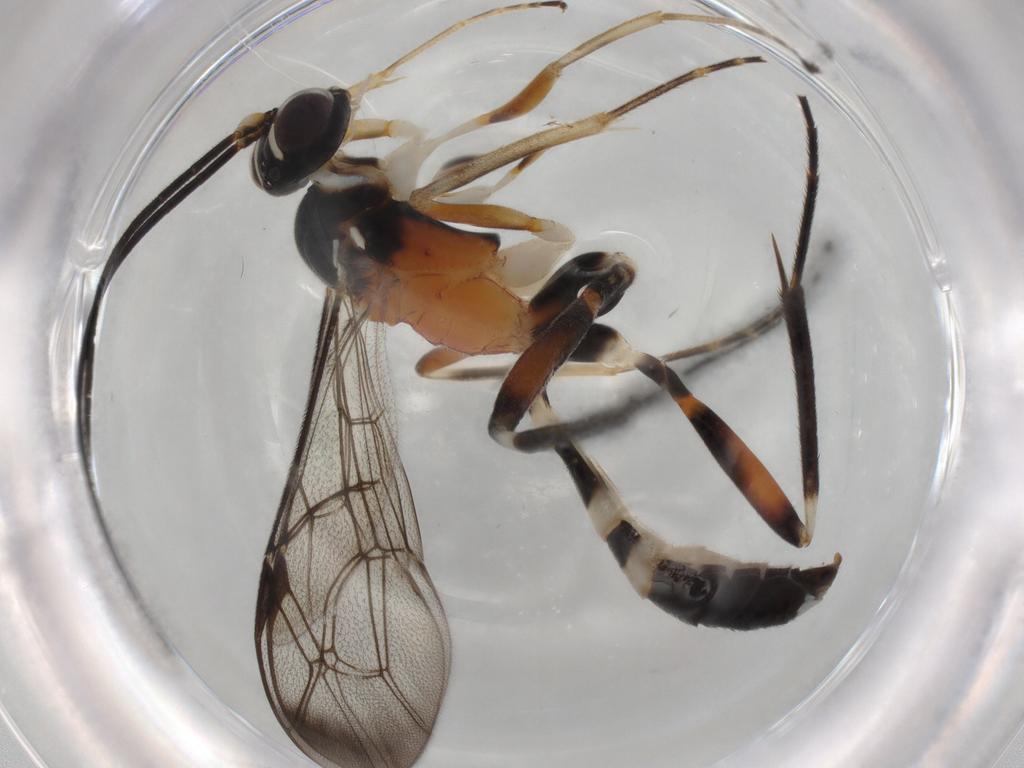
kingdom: Animalia
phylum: Arthropoda
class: Insecta
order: Hymenoptera
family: Ichneumonidae
